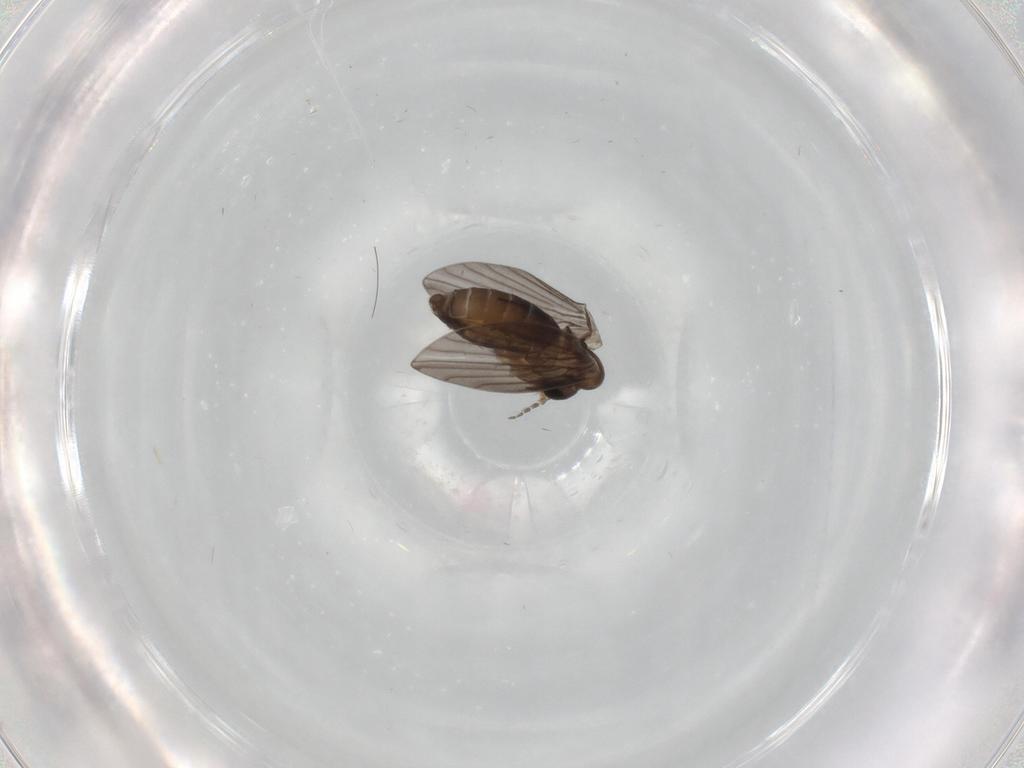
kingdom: Animalia
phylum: Arthropoda
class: Insecta
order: Diptera
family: Psychodidae
